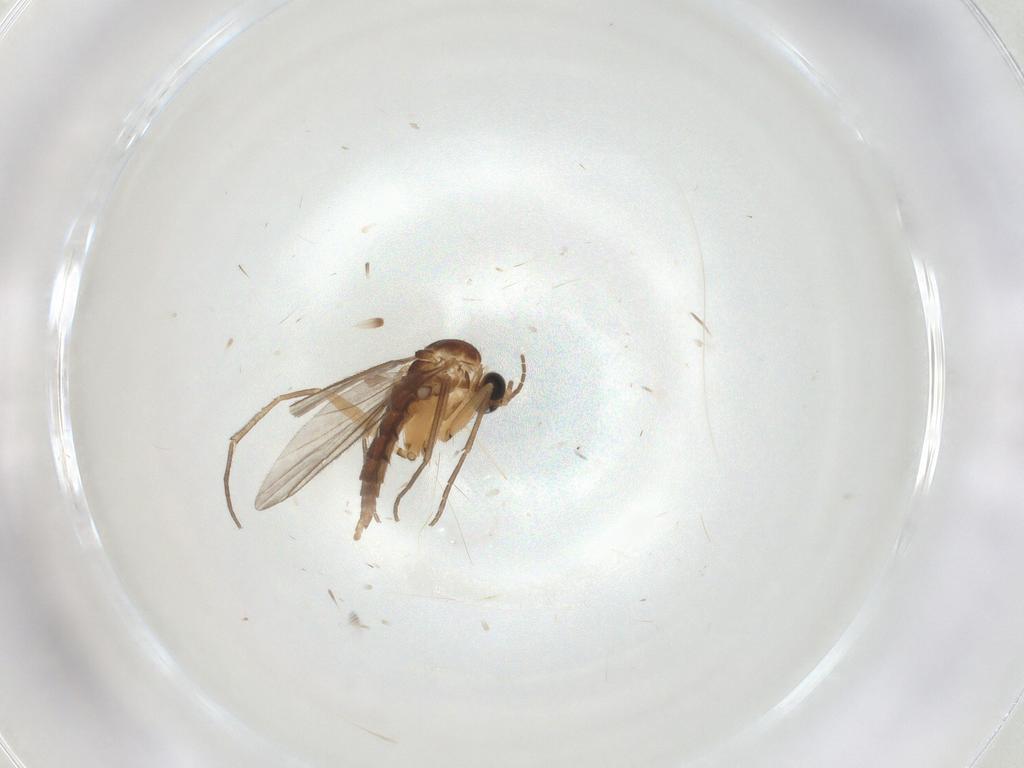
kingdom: Animalia
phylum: Arthropoda
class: Insecta
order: Diptera
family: Sciaridae
